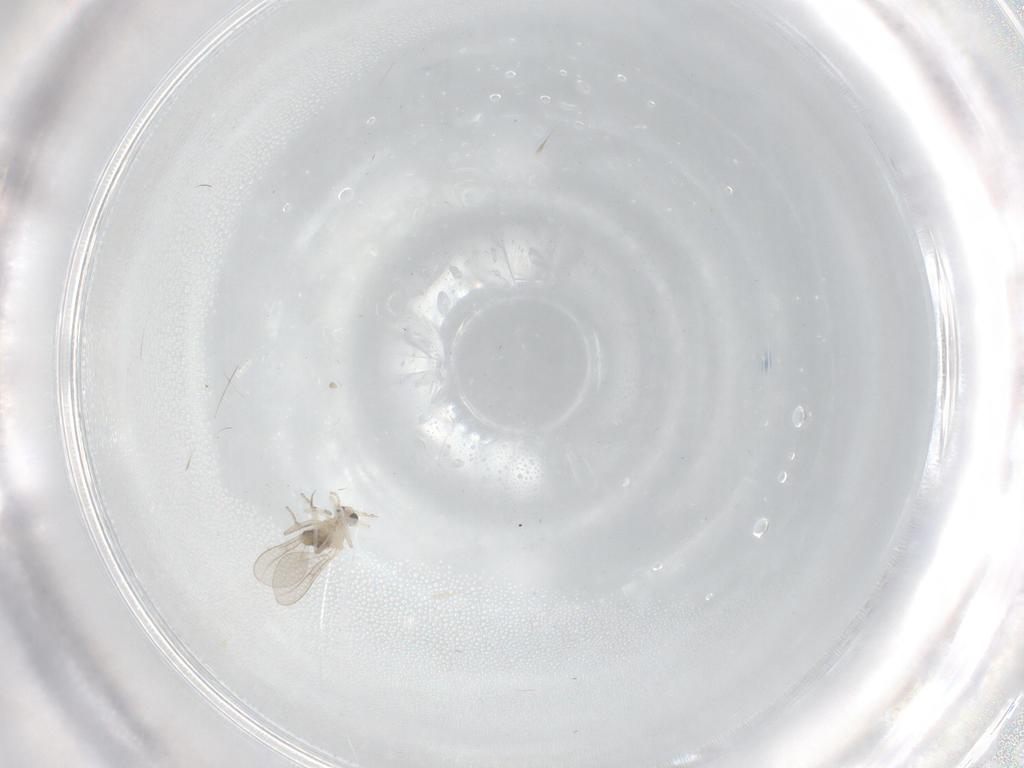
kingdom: Animalia
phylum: Arthropoda
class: Insecta
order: Diptera
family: Cecidomyiidae
